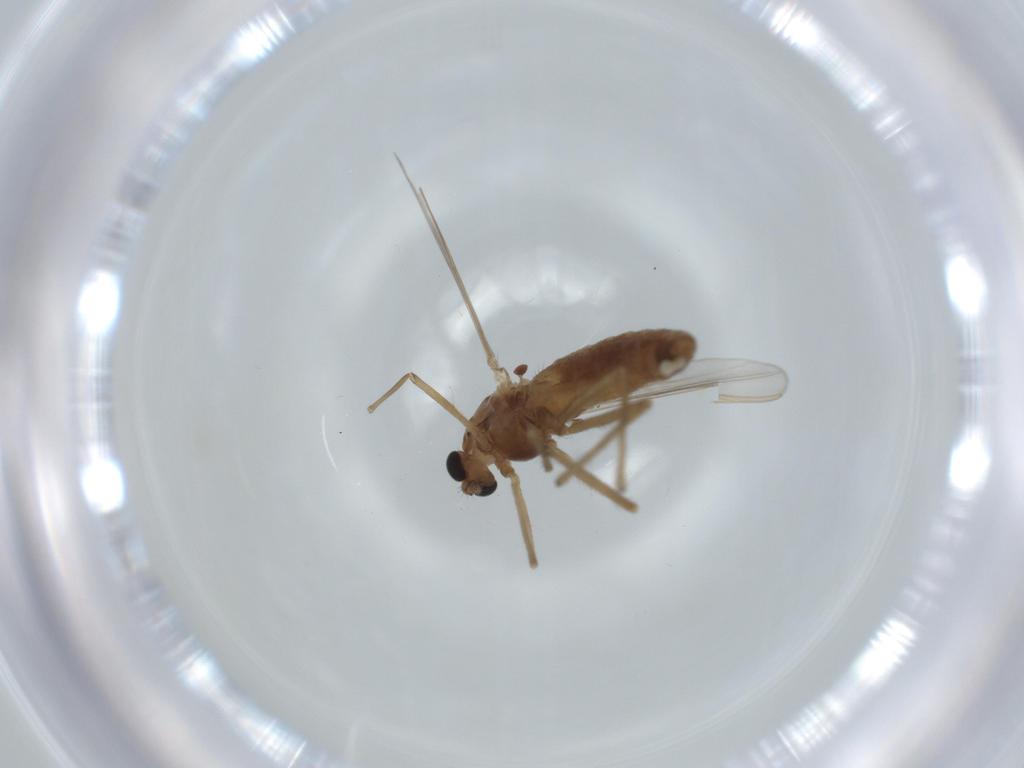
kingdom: Animalia
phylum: Arthropoda
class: Insecta
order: Diptera
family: Chironomidae
